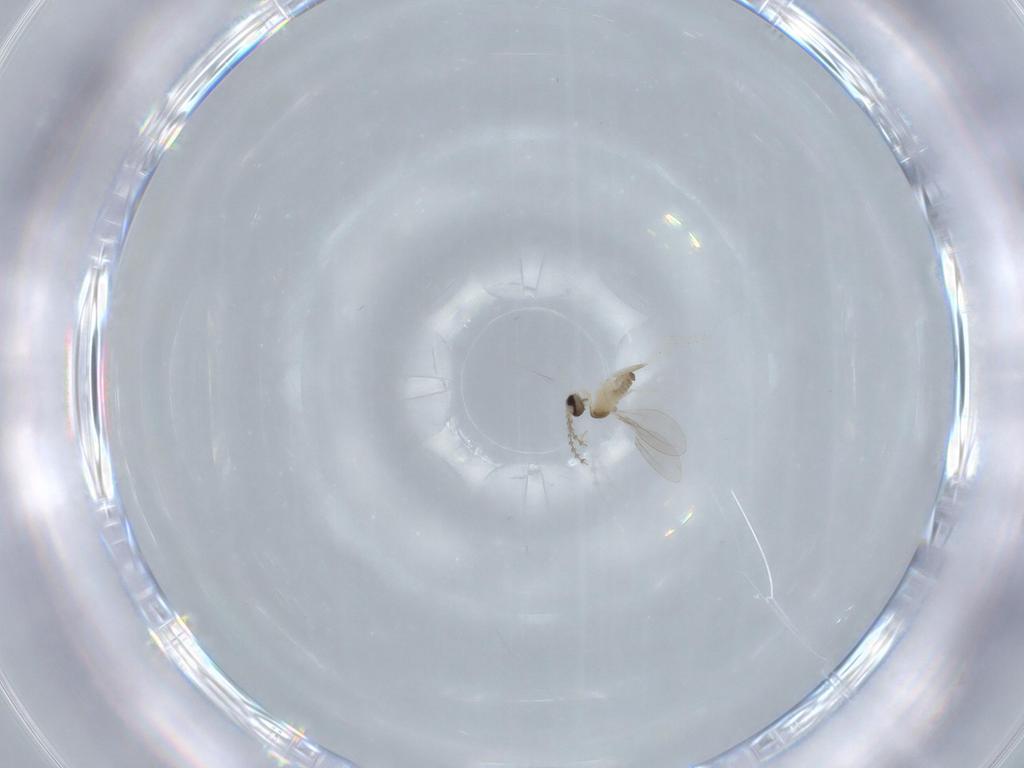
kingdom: Animalia
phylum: Arthropoda
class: Insecta
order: Diptera
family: Cecidomyiidae
